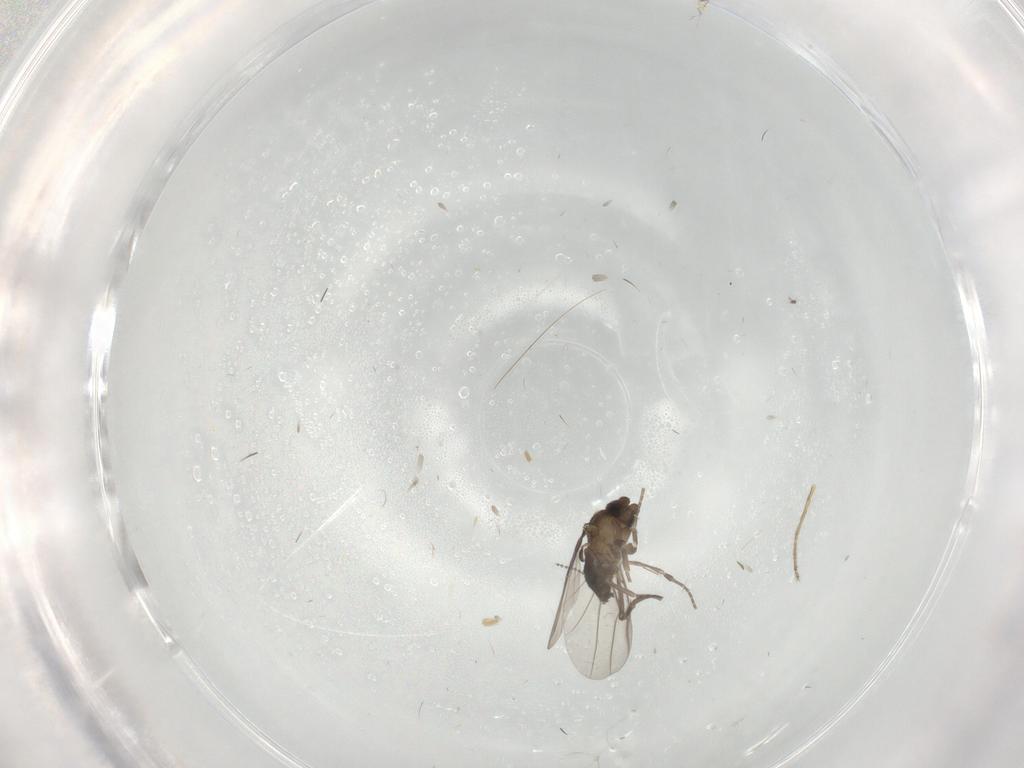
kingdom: Animalia
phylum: Arthropoda
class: Insecta
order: Diptera
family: Ceratopogonidae
